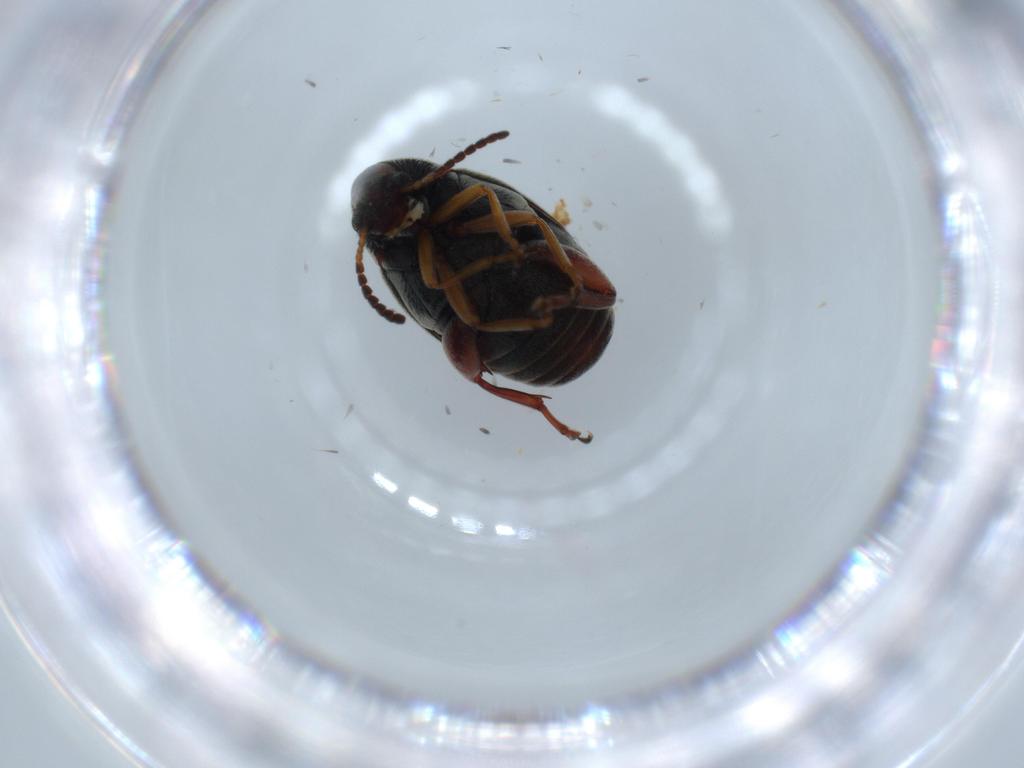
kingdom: Animalia
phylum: Arthropoda
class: Insecta
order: Coleoptera
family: Chrysomelidae
